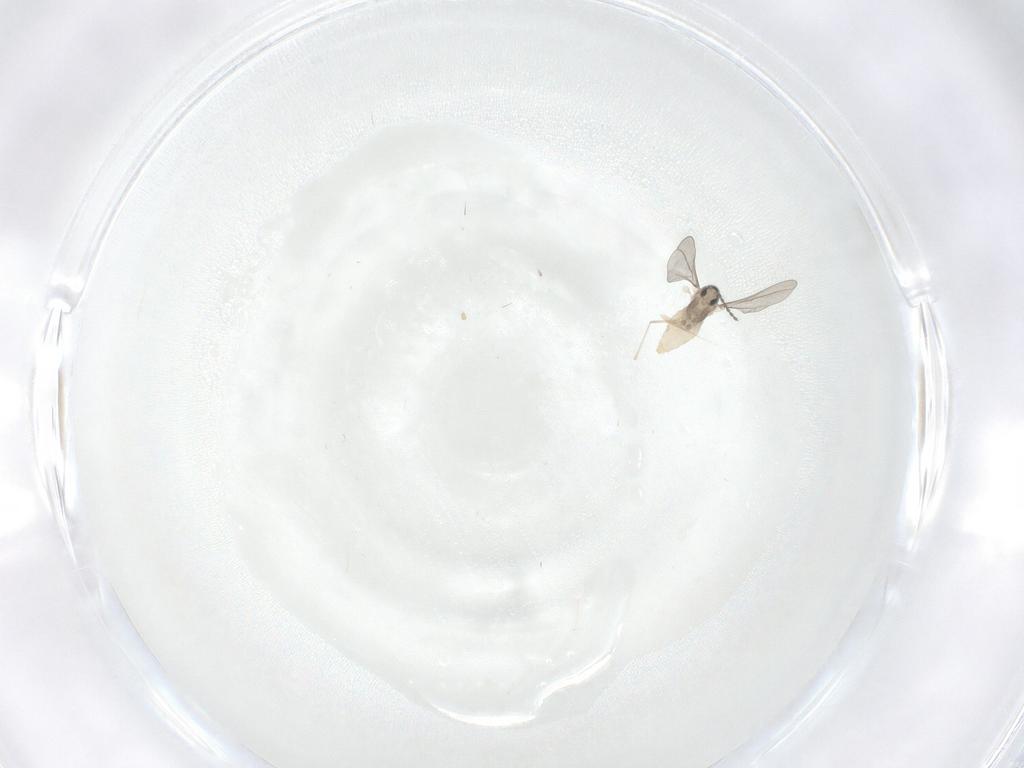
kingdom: Animalia
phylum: Arthropoda
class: Insecta
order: Diptera
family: Cecidomyiidae
